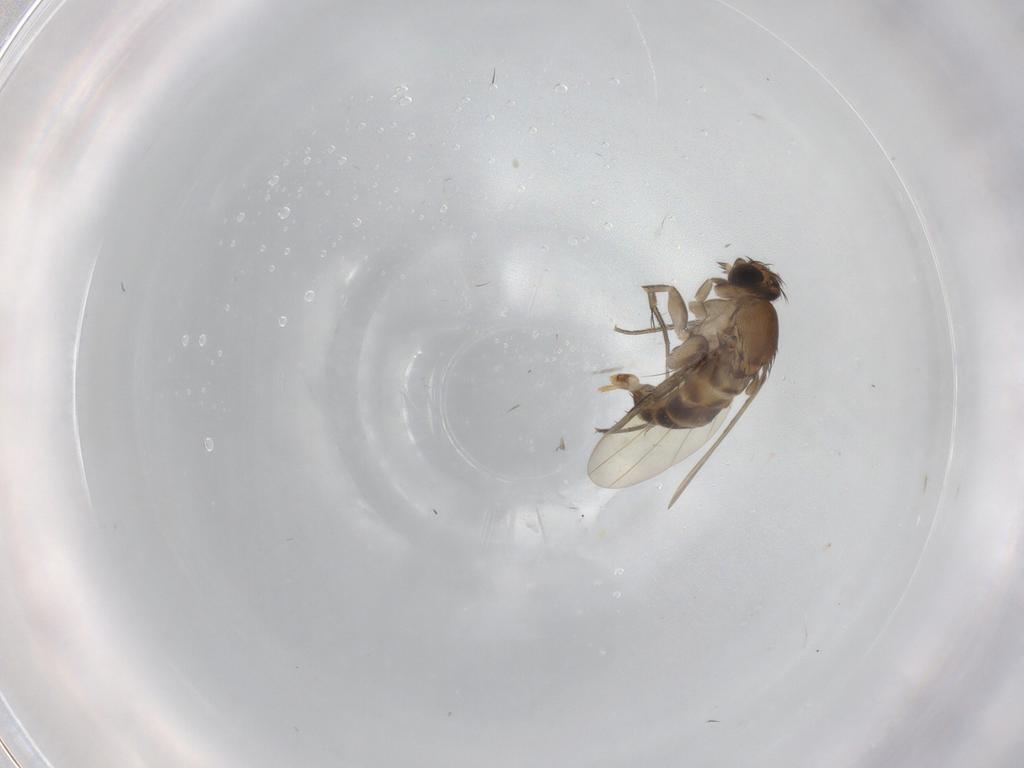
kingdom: Animalia
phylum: Arthropoda
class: Insecta
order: Diptera
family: Phoridae
